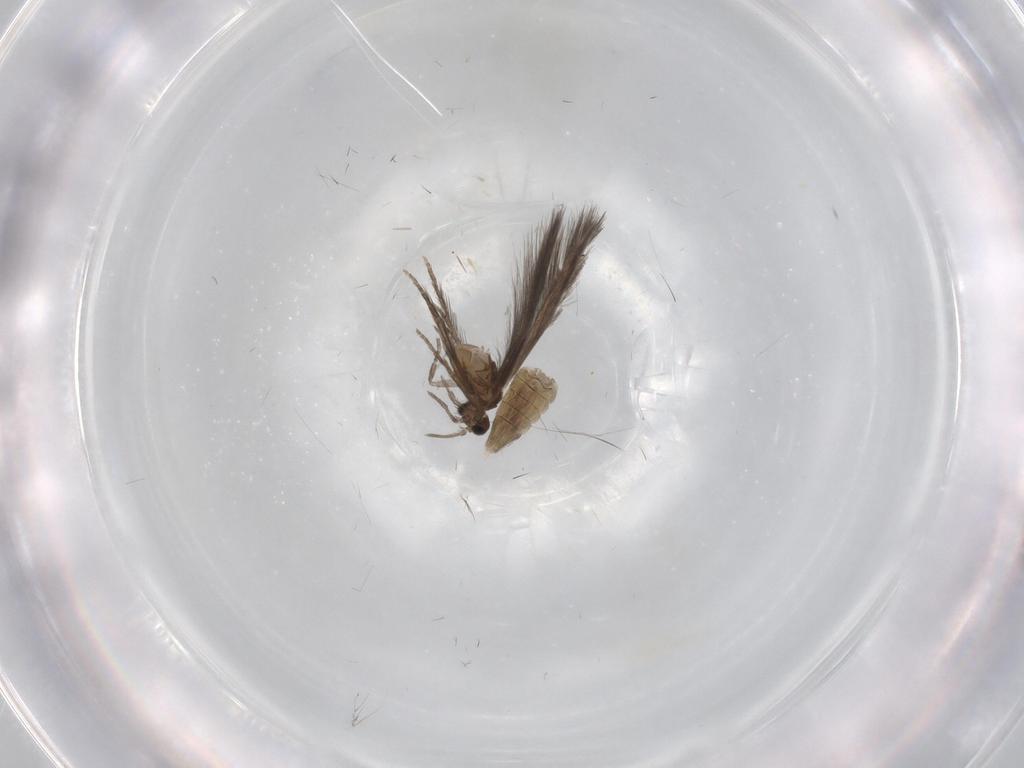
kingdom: Animalia
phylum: Arthropoda
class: Insecta
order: Trichoptera
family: Hydroptilidae
